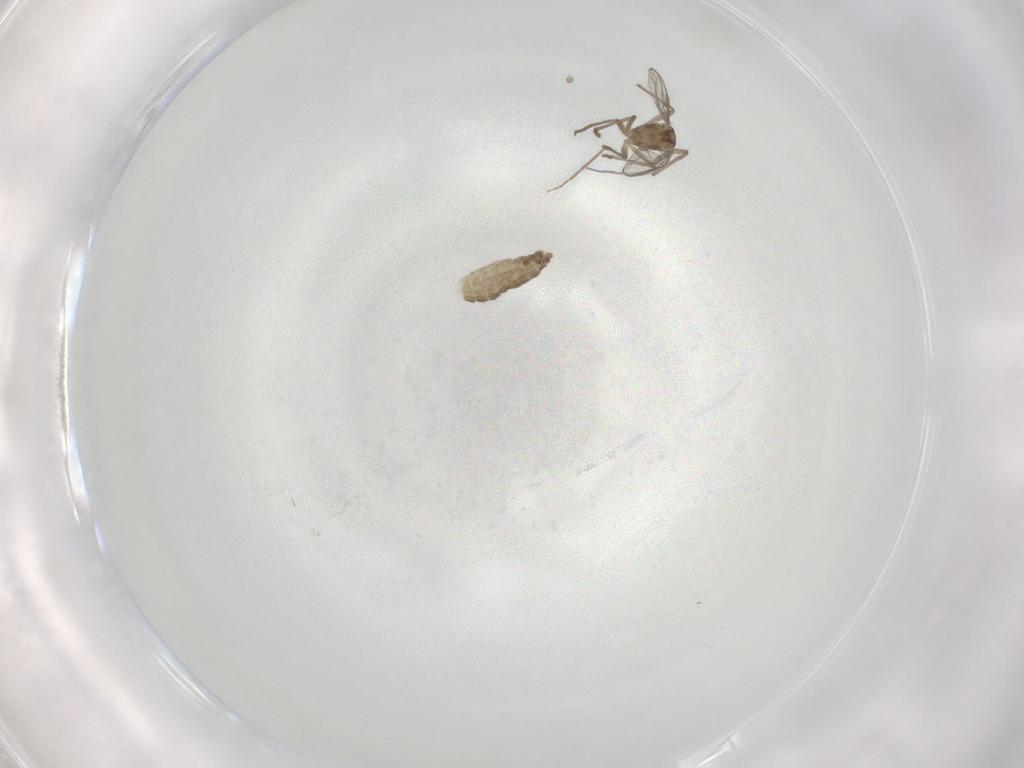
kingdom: Animalia
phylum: Arthropoda
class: Insecta
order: Diptera
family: Chironomidae
